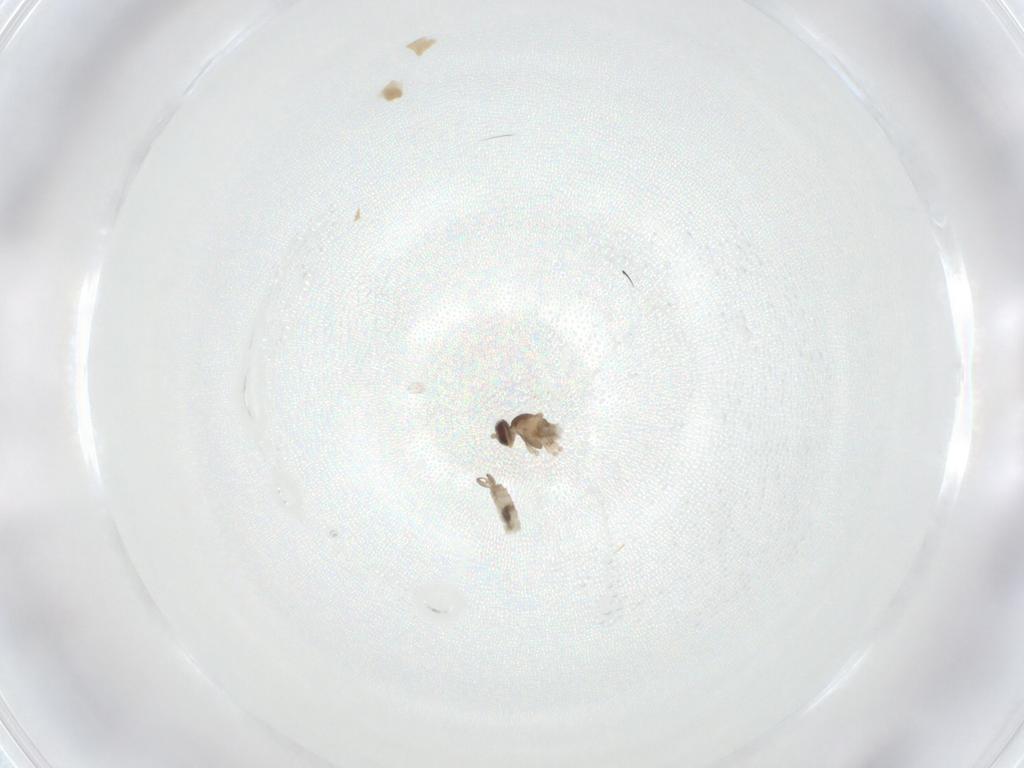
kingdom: Animalia
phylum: Arthropoda
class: Insecta
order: Diptera
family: Cecidomyiidae
